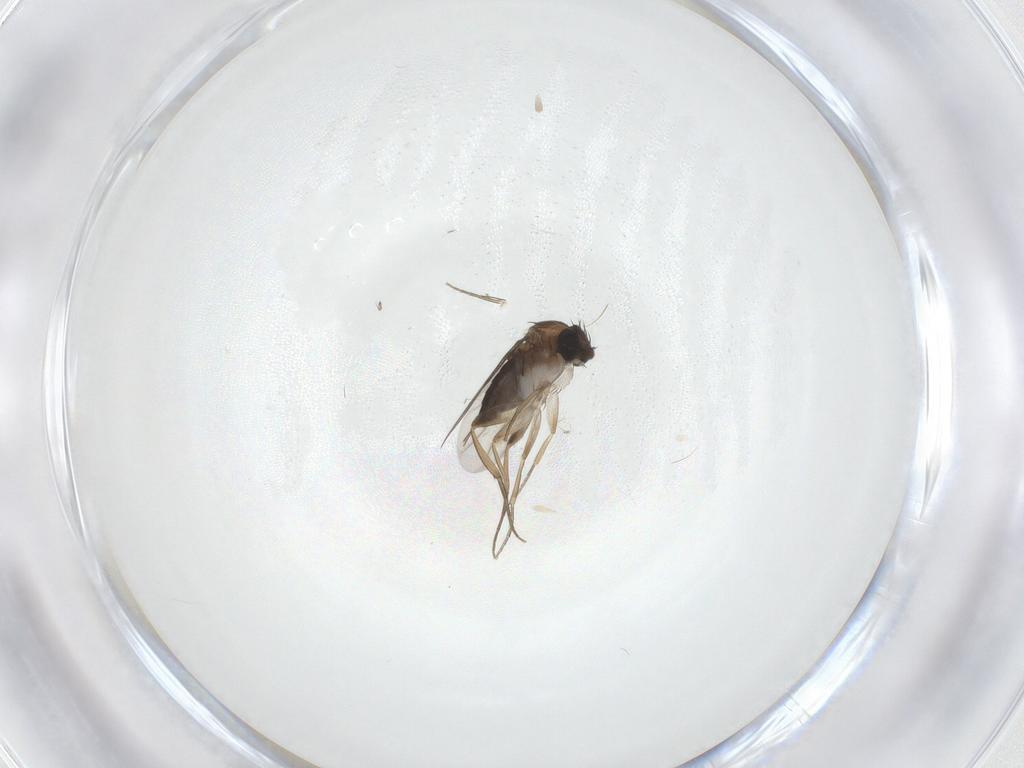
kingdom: Animalia
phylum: Arthropoda
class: Insecta
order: Diptera
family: Phoridae
